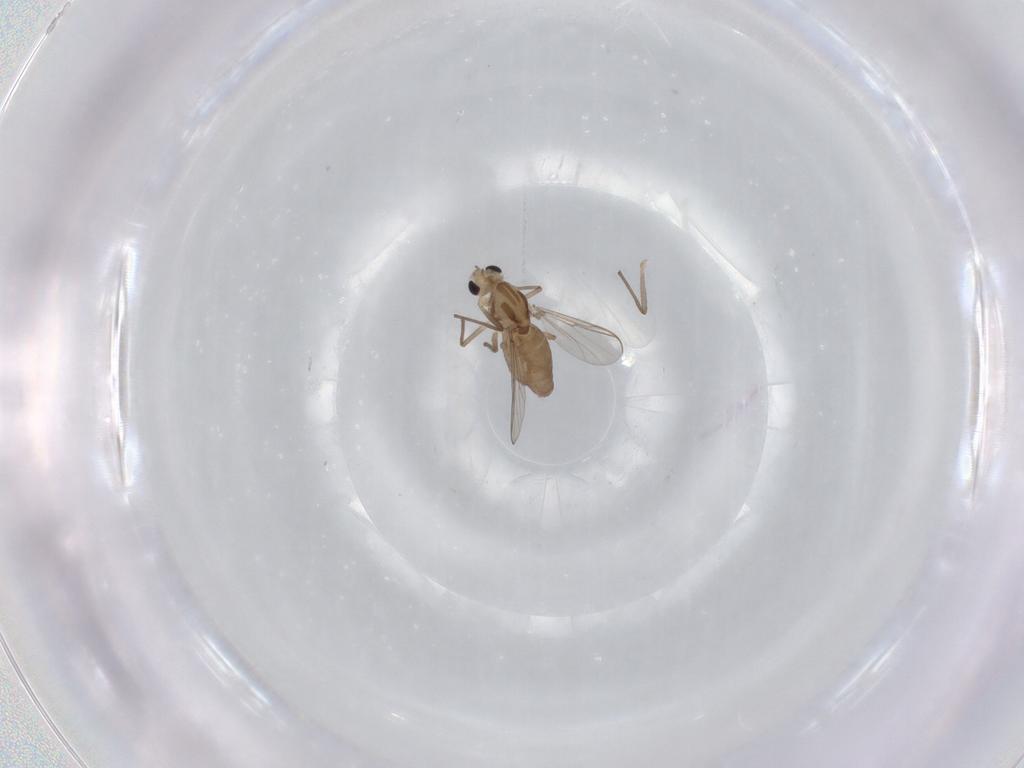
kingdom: Animalia
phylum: Arthropoda
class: Insecta
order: Diptera
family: Chironomidae
